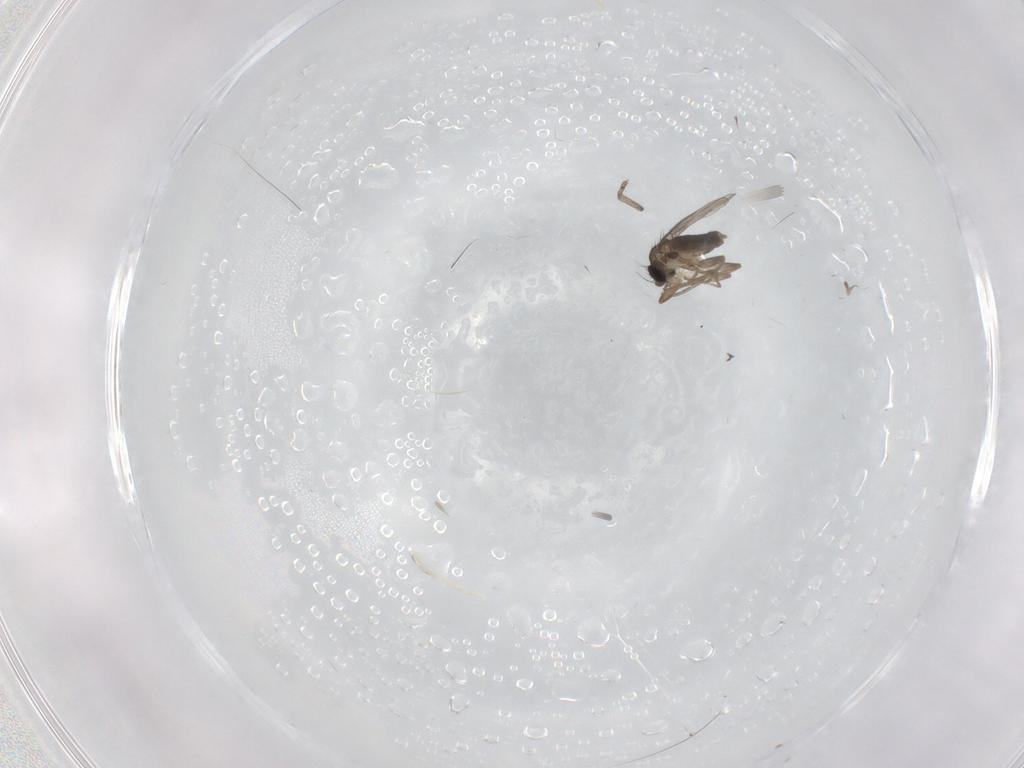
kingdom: Animalia
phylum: Arthropoda
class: Insecta
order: Diptera
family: Phoridae
